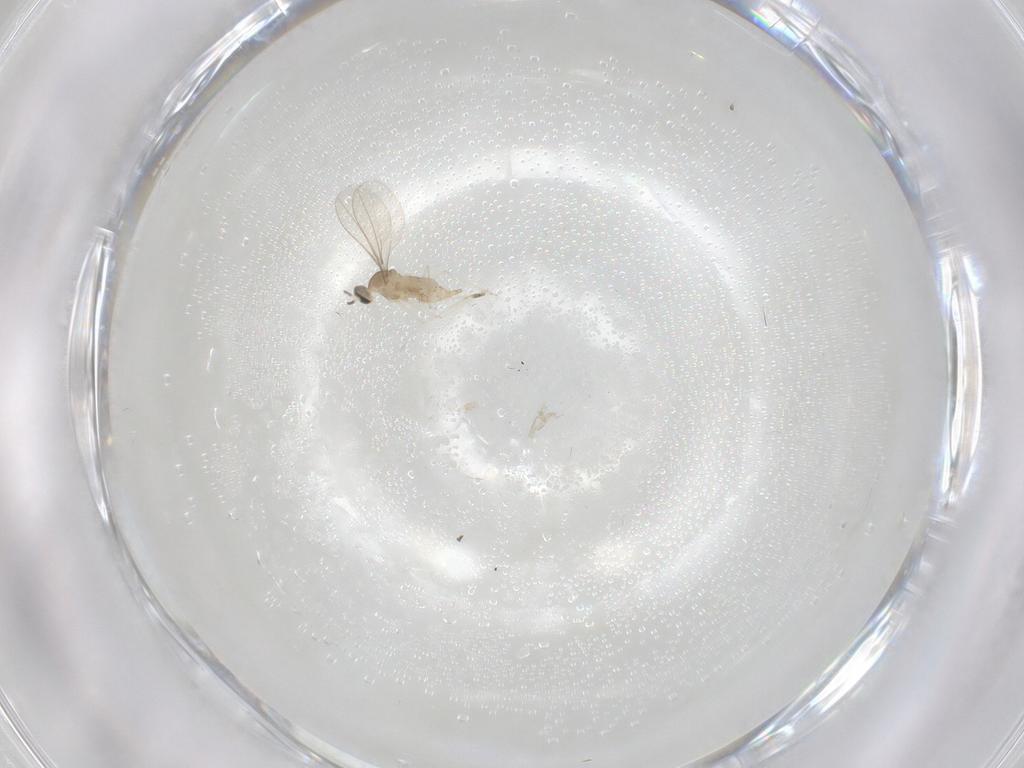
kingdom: Animalia
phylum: Arthropoda
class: Insecta
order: Diptera
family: Cecidomyiidae
